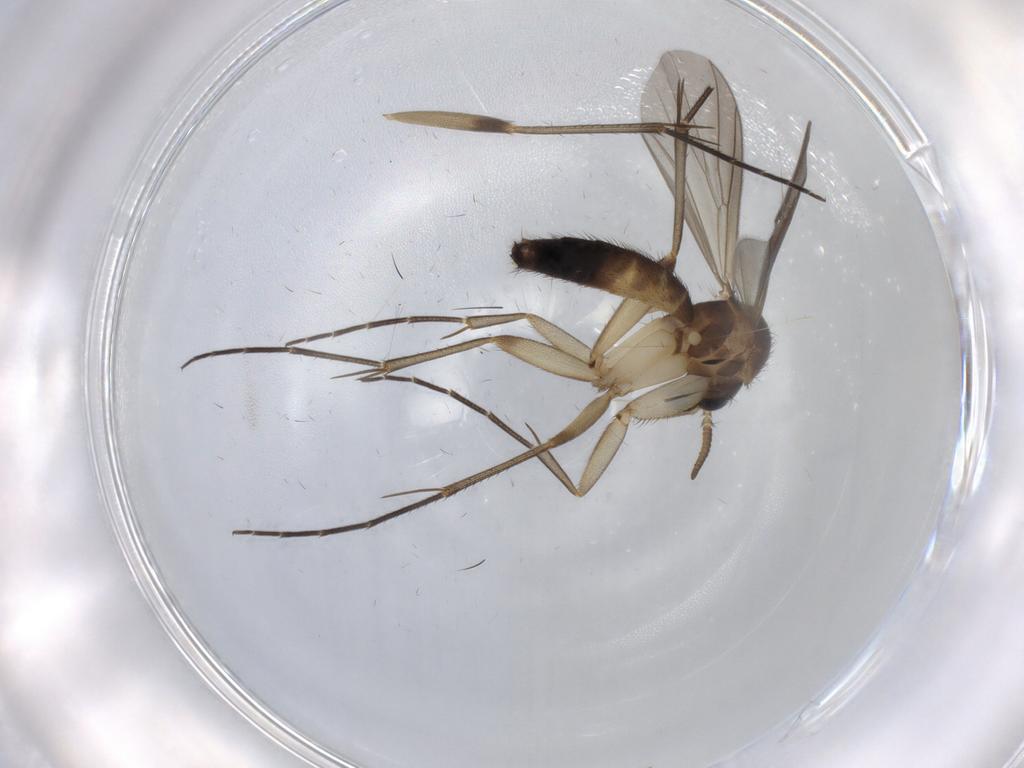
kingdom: Animalia
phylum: Arthropoda
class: Insecta
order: Diptera
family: Mycetophilidae
